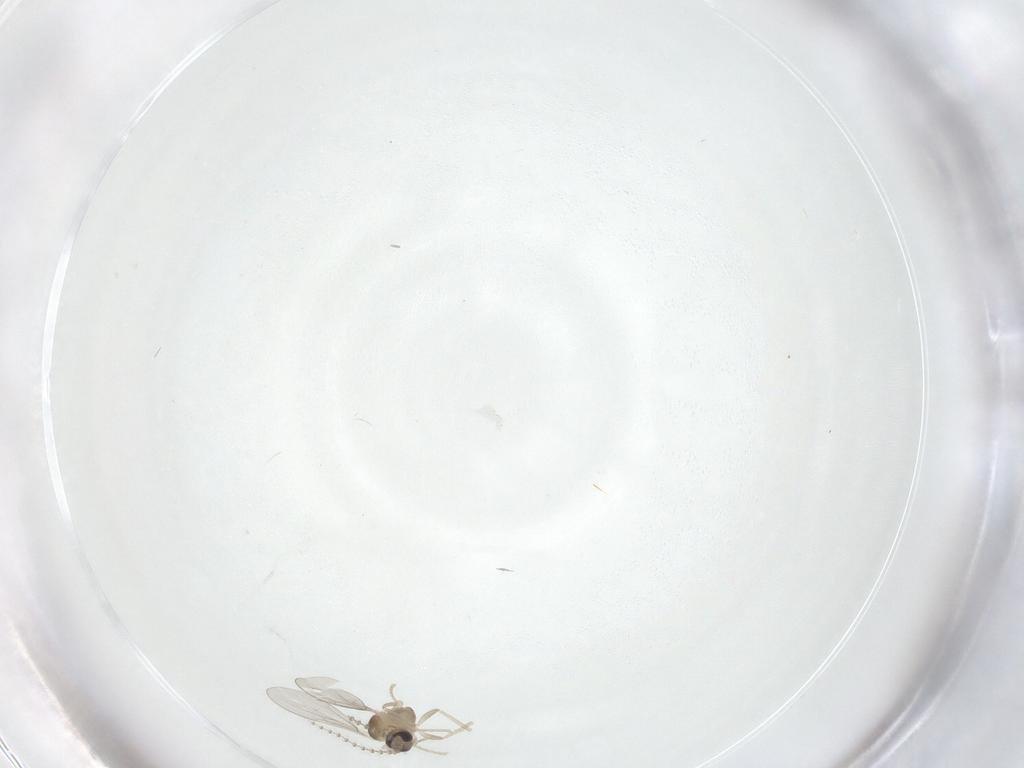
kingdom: Animalia
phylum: Arthropoda
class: Insecta
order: Diptera
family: Cecidomyiidae
